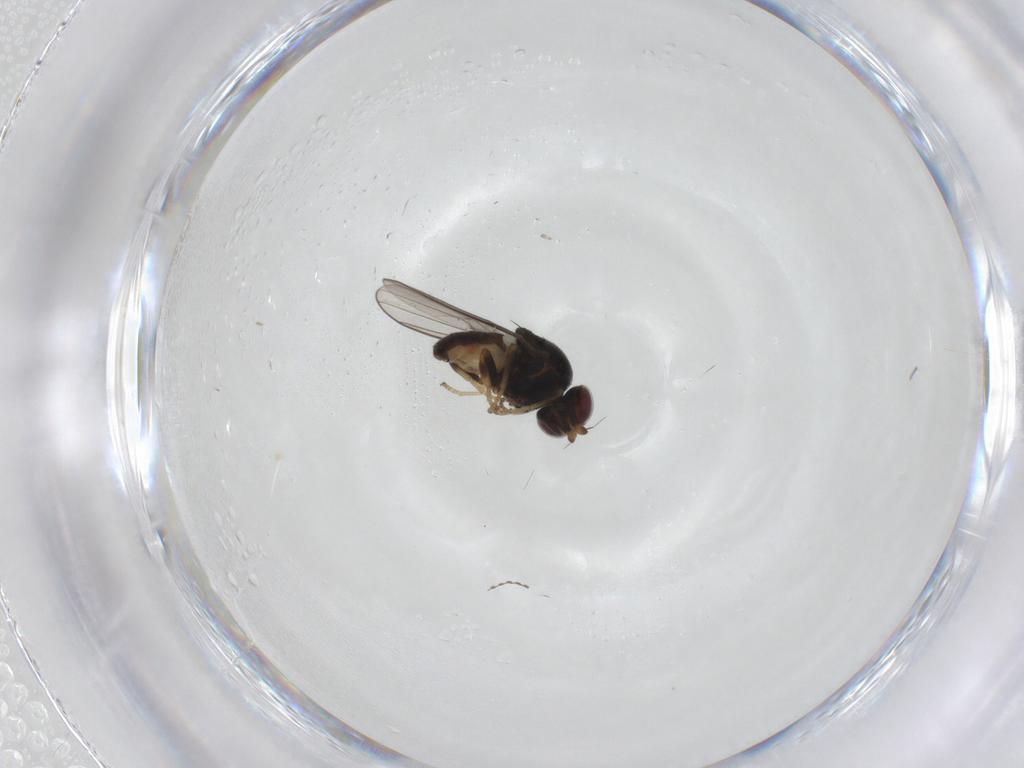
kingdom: Animalia
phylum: Arthropoda
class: Insecta
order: Diptera
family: Chloropidae
